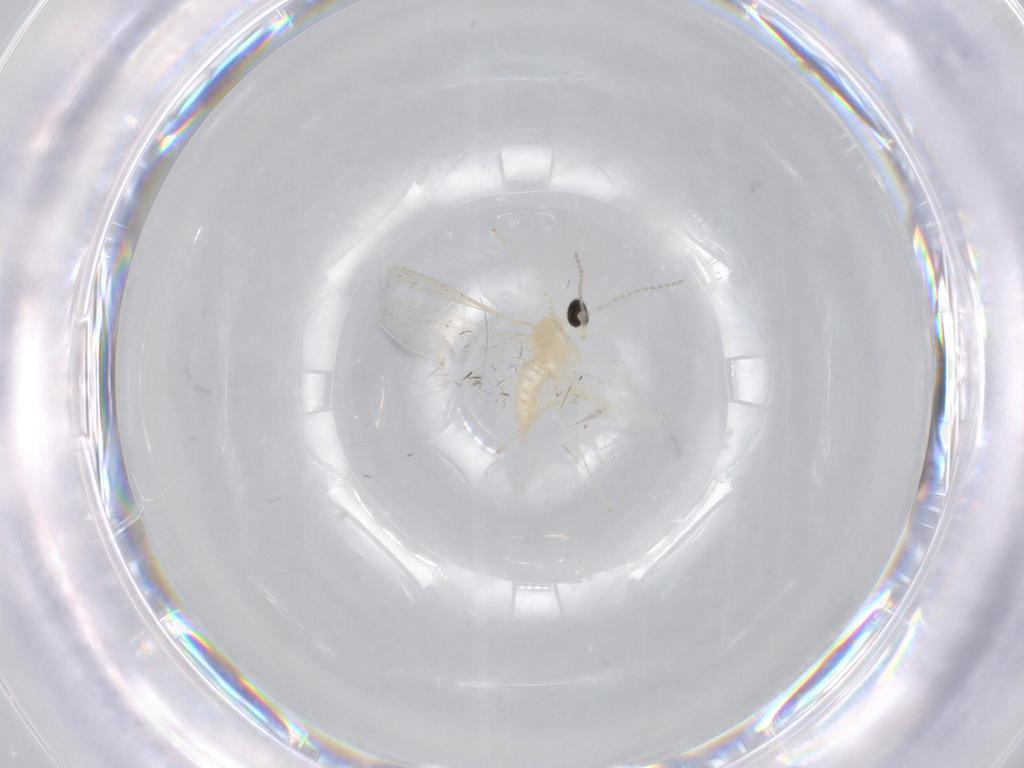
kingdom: Animalia
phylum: Arthropoda
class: Insecta
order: Diptera
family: Cecidomyiidae
